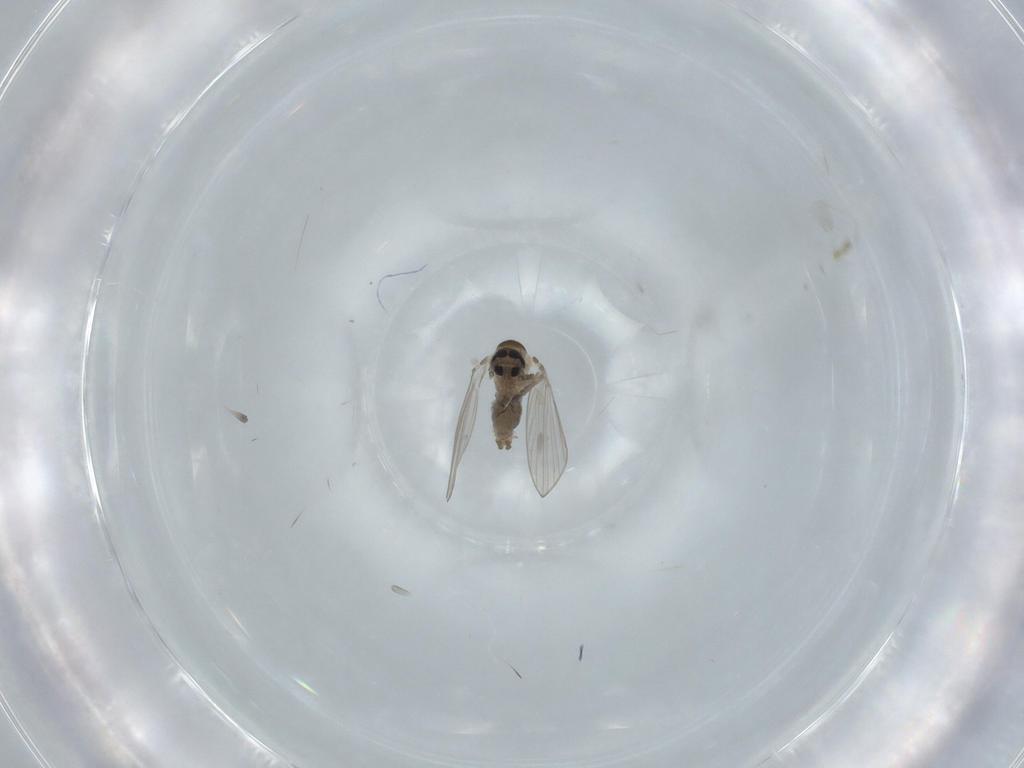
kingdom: Animalia
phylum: Arthropoda
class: Insecta
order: Diptera
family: Psychodidae
